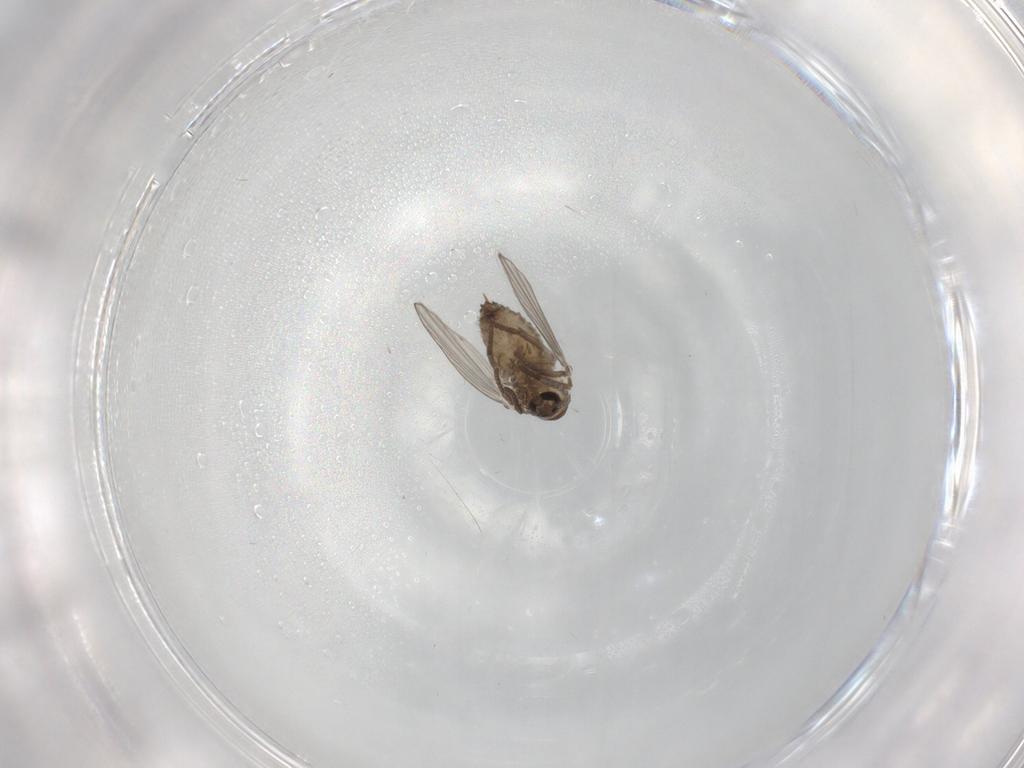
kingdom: Animalia
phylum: Arthropoda
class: Insecta
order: Diptera
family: Psychodidae
